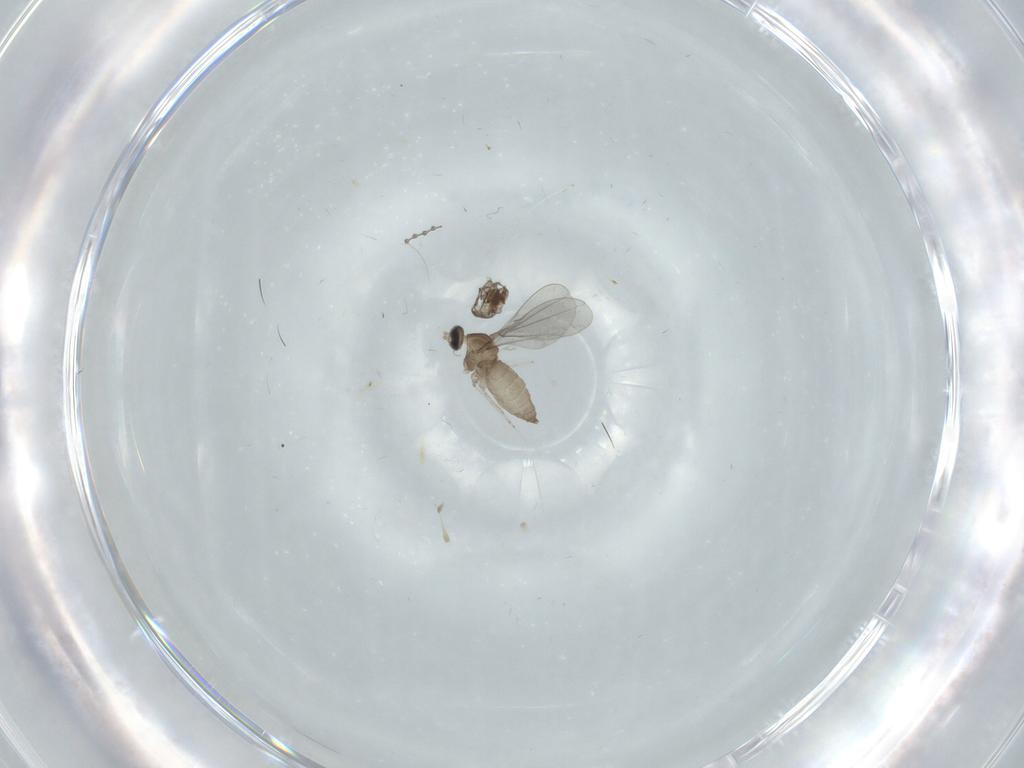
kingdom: Animalia
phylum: Arthropoda
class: Insecta
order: Diptera
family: Cecidomyiidae
